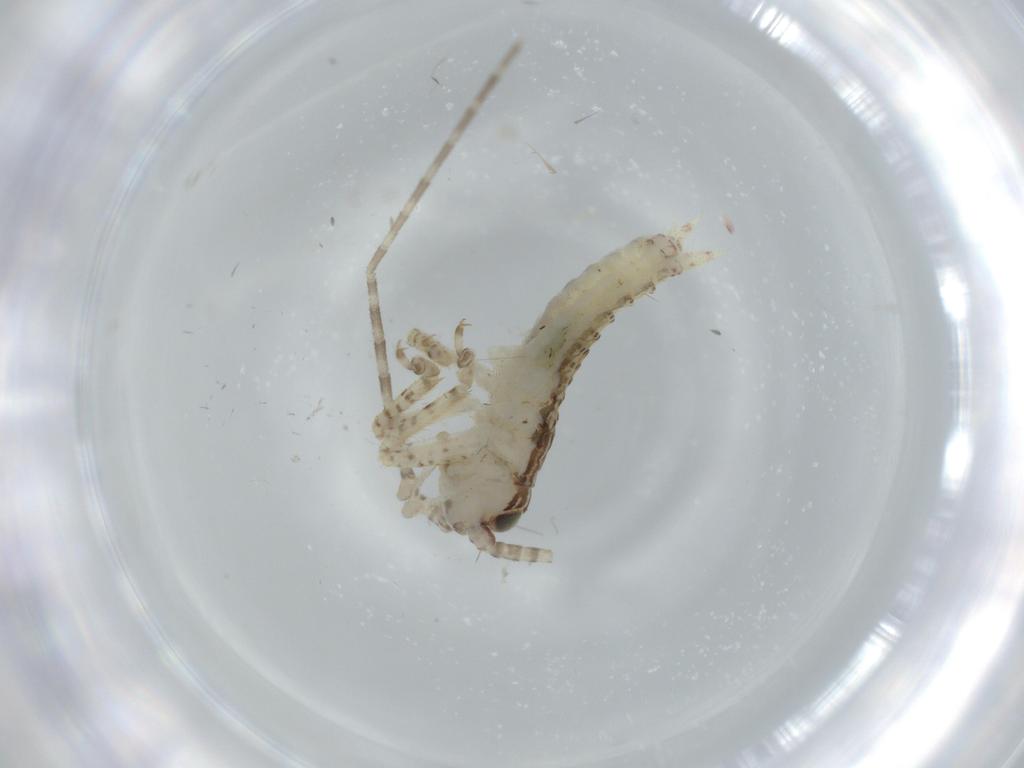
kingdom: Animalia
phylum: Arthropoda
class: Insecta
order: Orthoptera
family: Gryllidae
